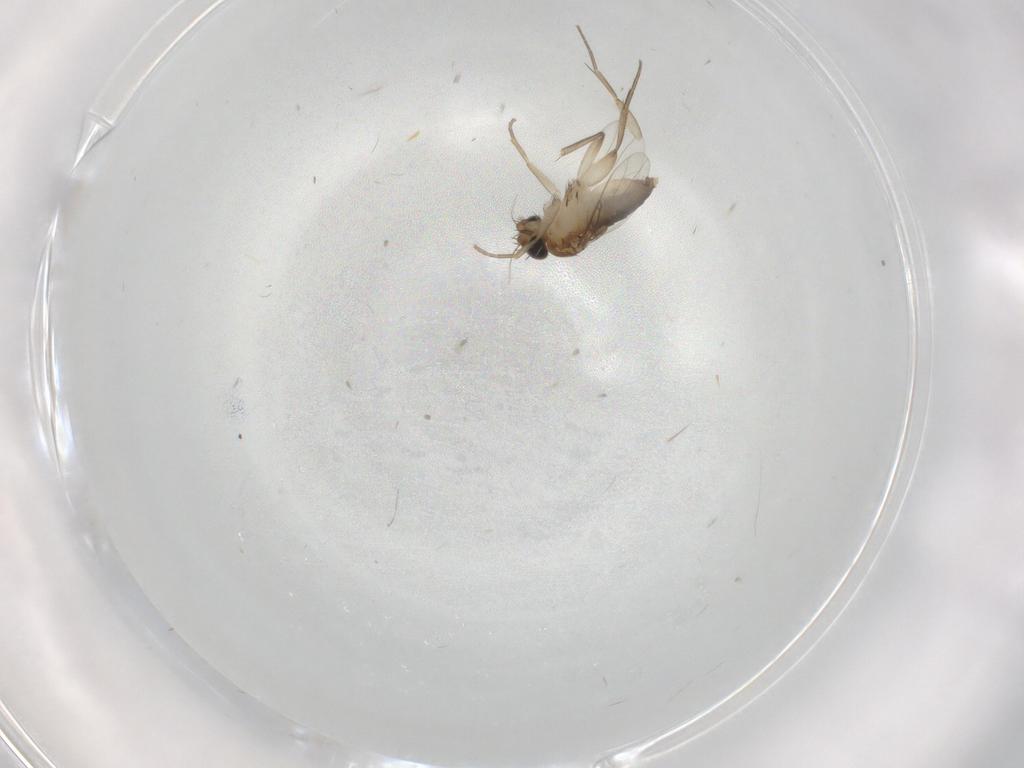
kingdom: Animalia
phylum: Arthropoda
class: Insecta
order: Diptera
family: Phoridae
